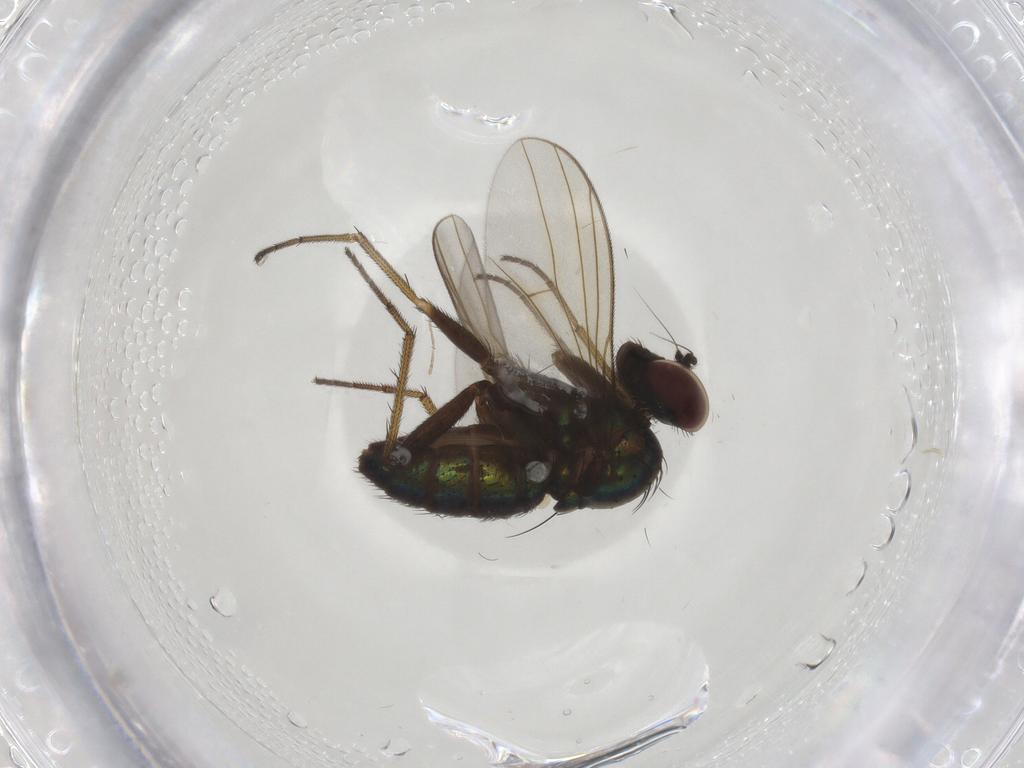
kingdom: Animalia
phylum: Arthropoda
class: Insecta
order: Diptera
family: Dolichopodidae
